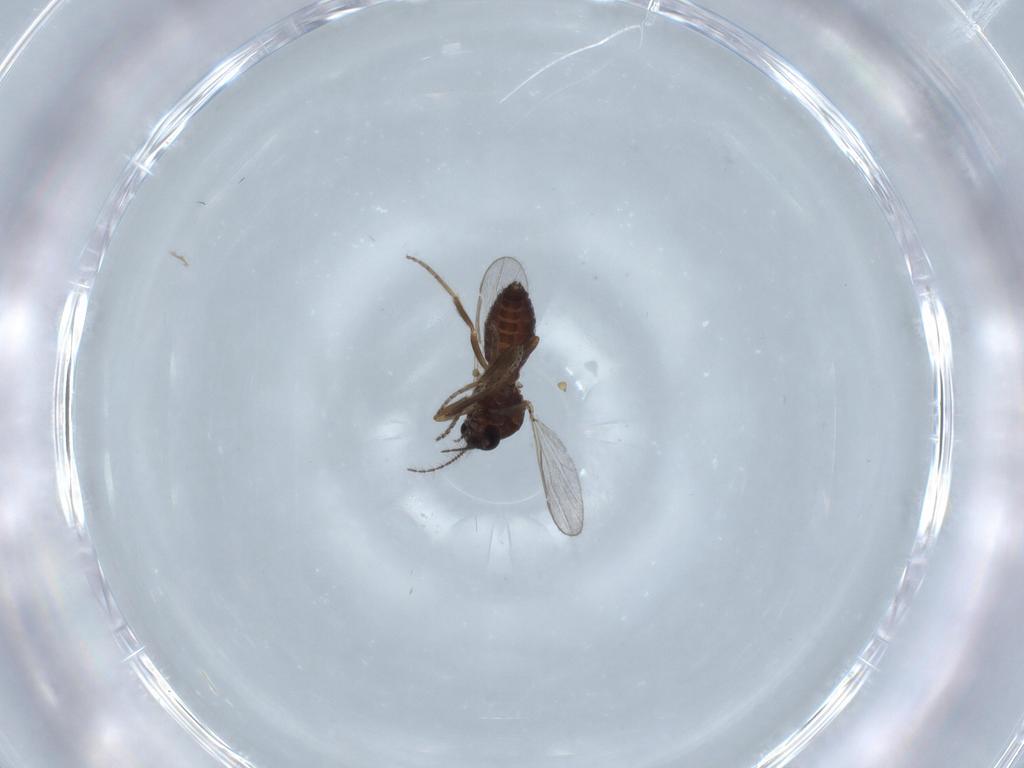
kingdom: Animalia
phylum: Arthropoda
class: Insecta
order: Diptera
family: Ceratopogonidae
